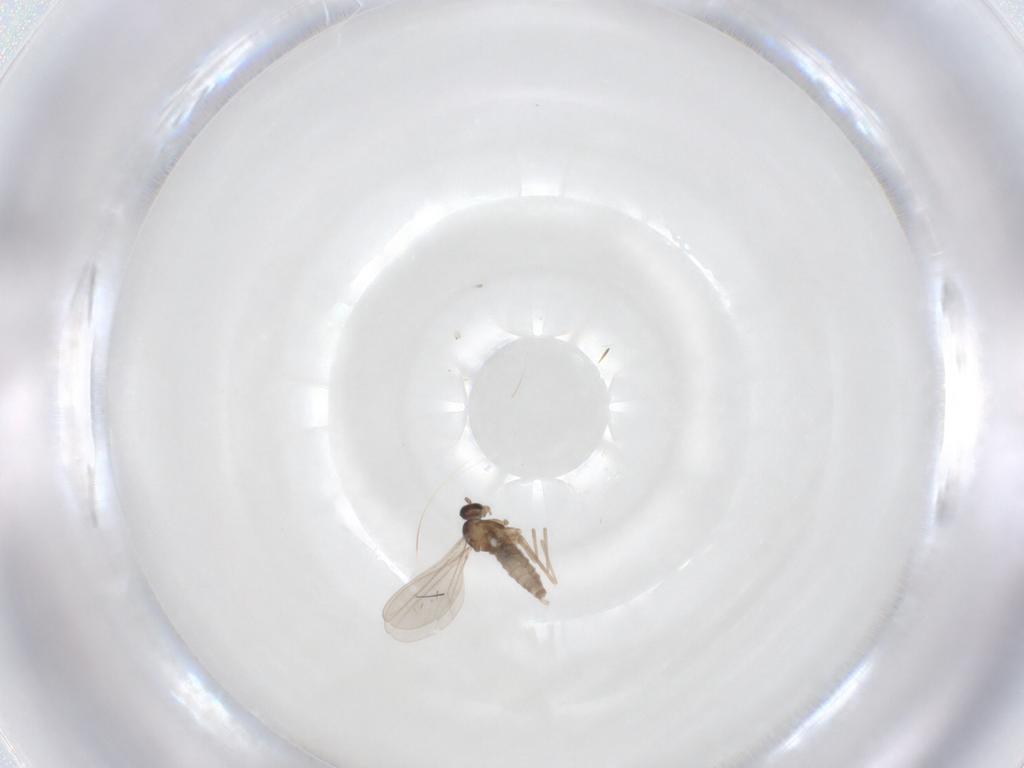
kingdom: Animalia
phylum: Arthropoda
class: Insecta
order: Diptera
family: Cecidomyiidae
